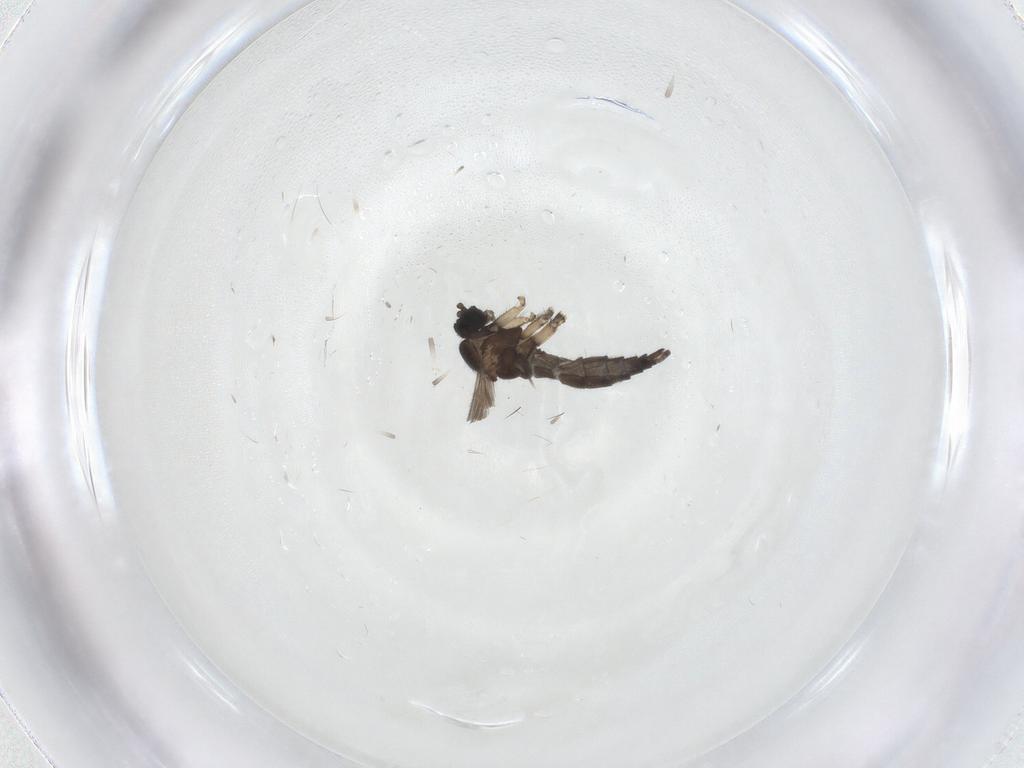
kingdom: Animalia
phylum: Arthropoda
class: Insecta
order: Diptera
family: Sciaridae
